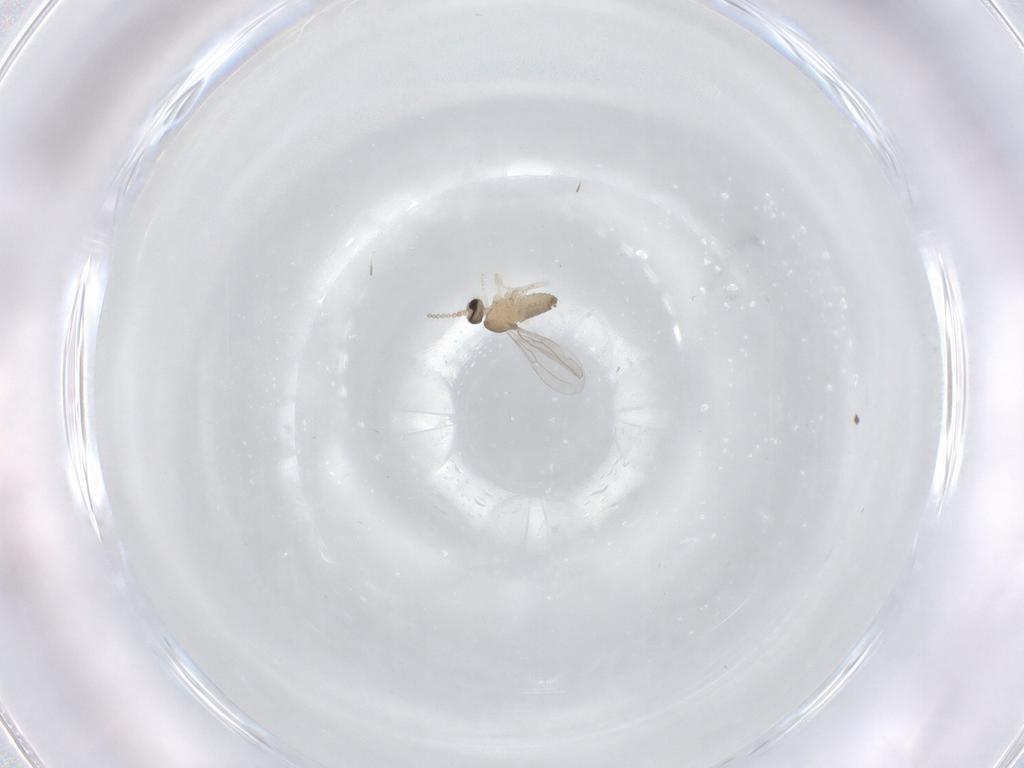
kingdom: Animalia
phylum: Arthropoda
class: Insecta
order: Diptera
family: Cecidomyiidae
